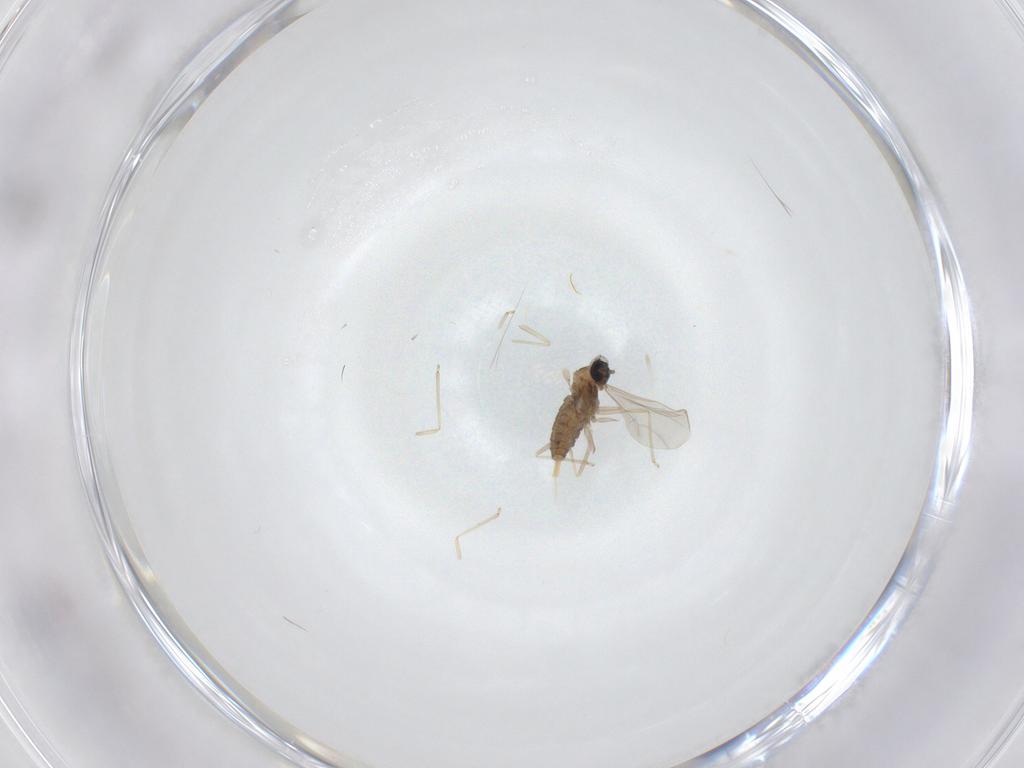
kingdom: Animalia
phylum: Arthropoda
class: Insecta
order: Diptera
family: Cecidomyiidae
